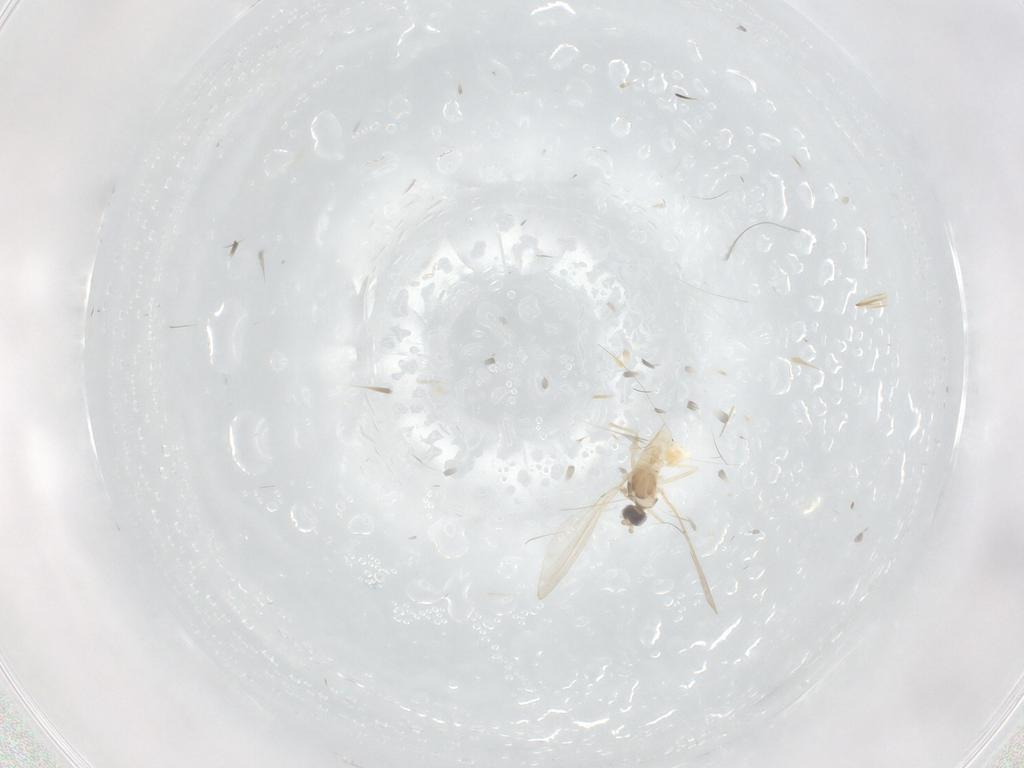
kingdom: Animalia
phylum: Arthropoda
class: Insecta
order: Diptera
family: Cecidomyiidae
